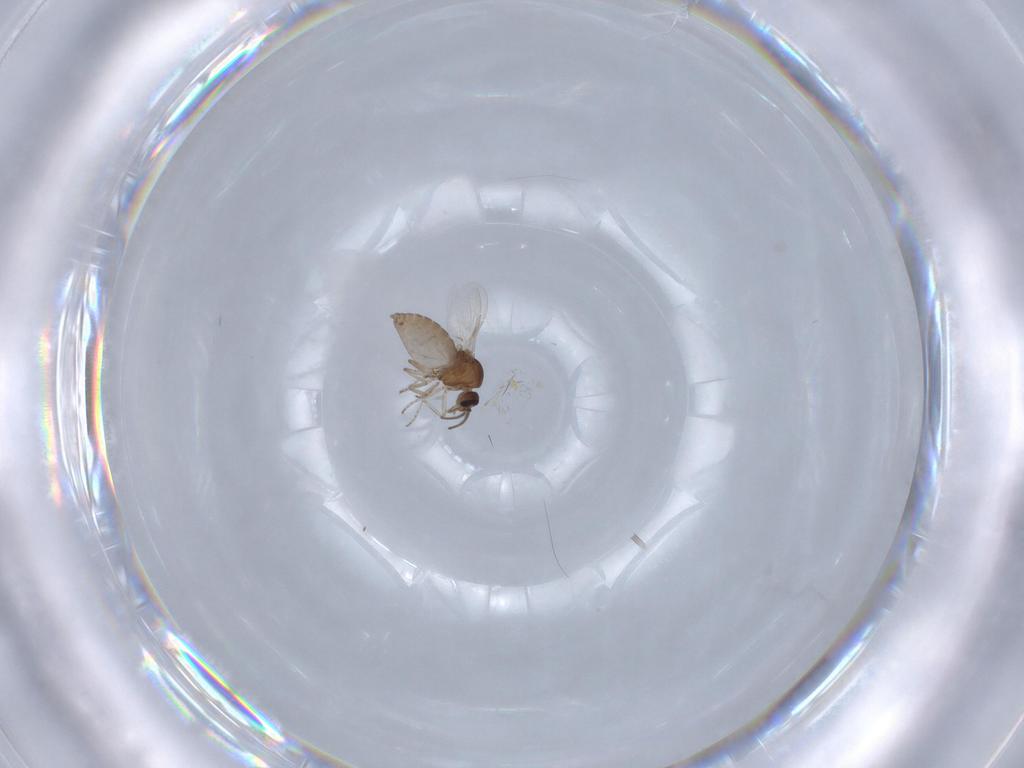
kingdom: Animalia
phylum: Arthropoda
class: Insecta
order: Diptera
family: Ceratopogonidae
